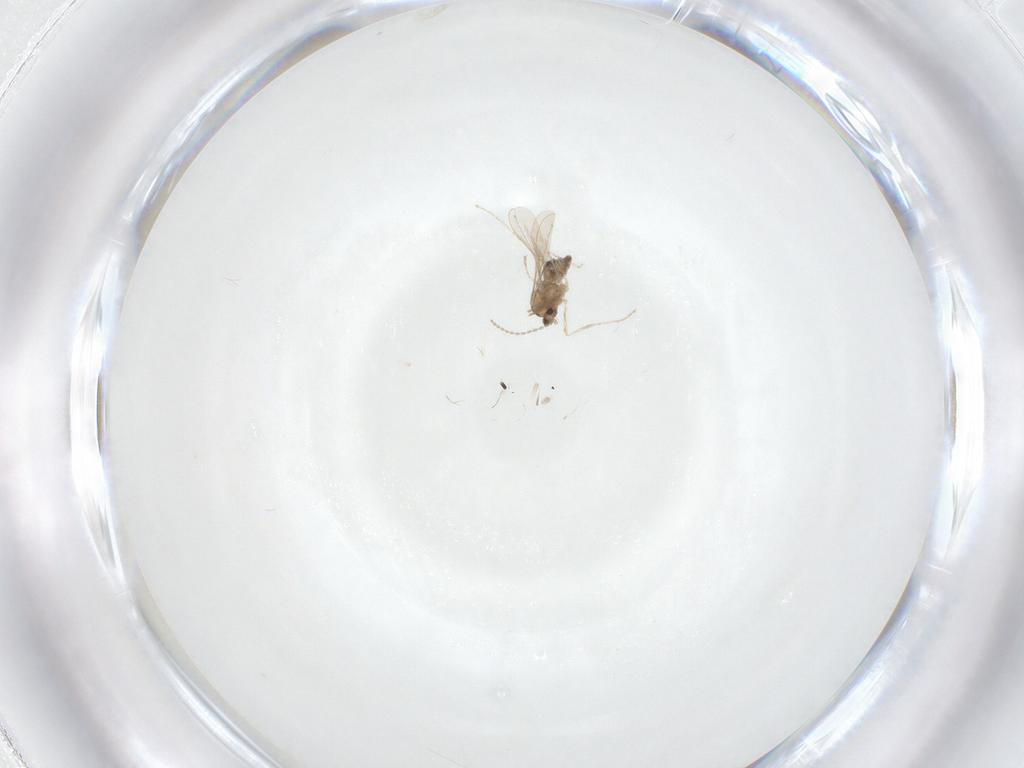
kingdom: Animalia
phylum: Arthropoda
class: Insecta
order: Diptera
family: Cecidomyiidae
